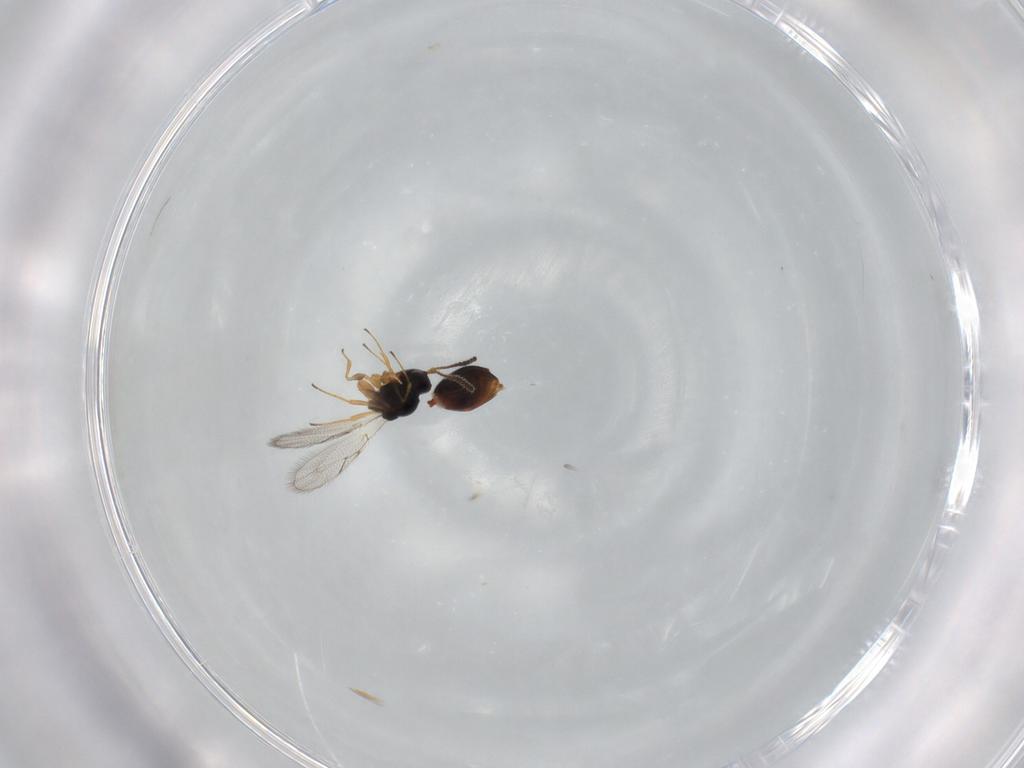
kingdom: Animalia
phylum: Arthropoda
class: Insecta
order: Hymenoptera
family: Figitidae
